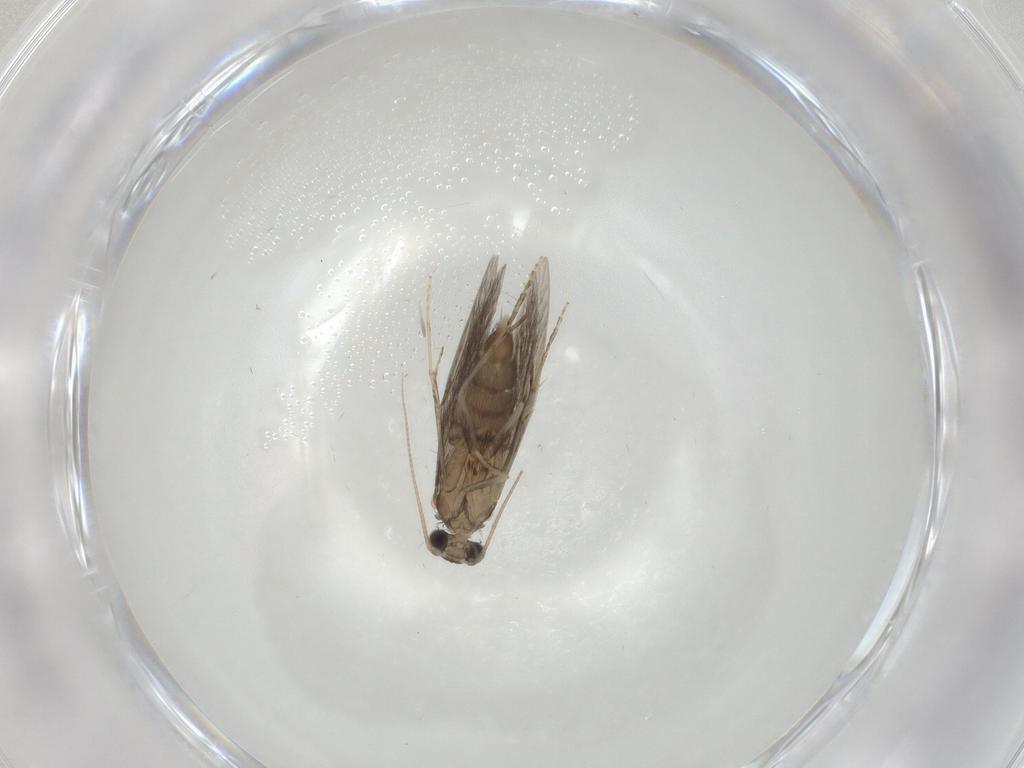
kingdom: Animalia
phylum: Arthropoda
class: Insecta
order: Trichoptera
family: Hydroptilidae
